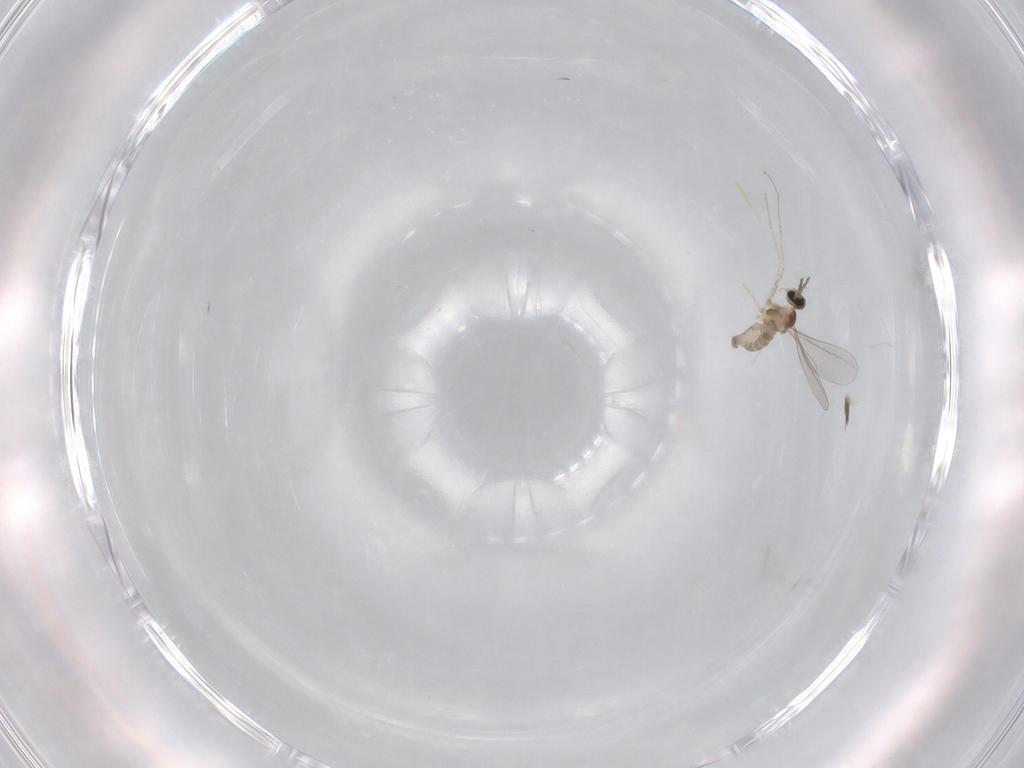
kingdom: Animalia
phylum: Arthropoda
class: Insecta
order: Diptera
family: Cecidomyiidae
